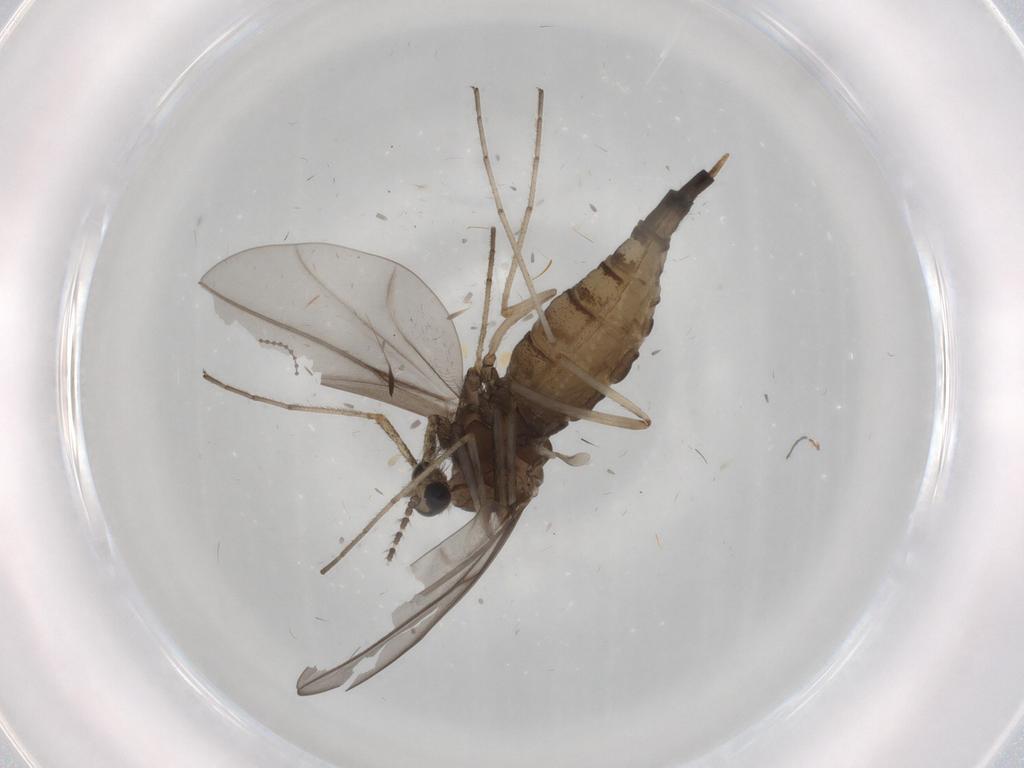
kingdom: Animalia
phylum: Arthropoda
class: Insecta
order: Diptera
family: Cecidomyiidae
